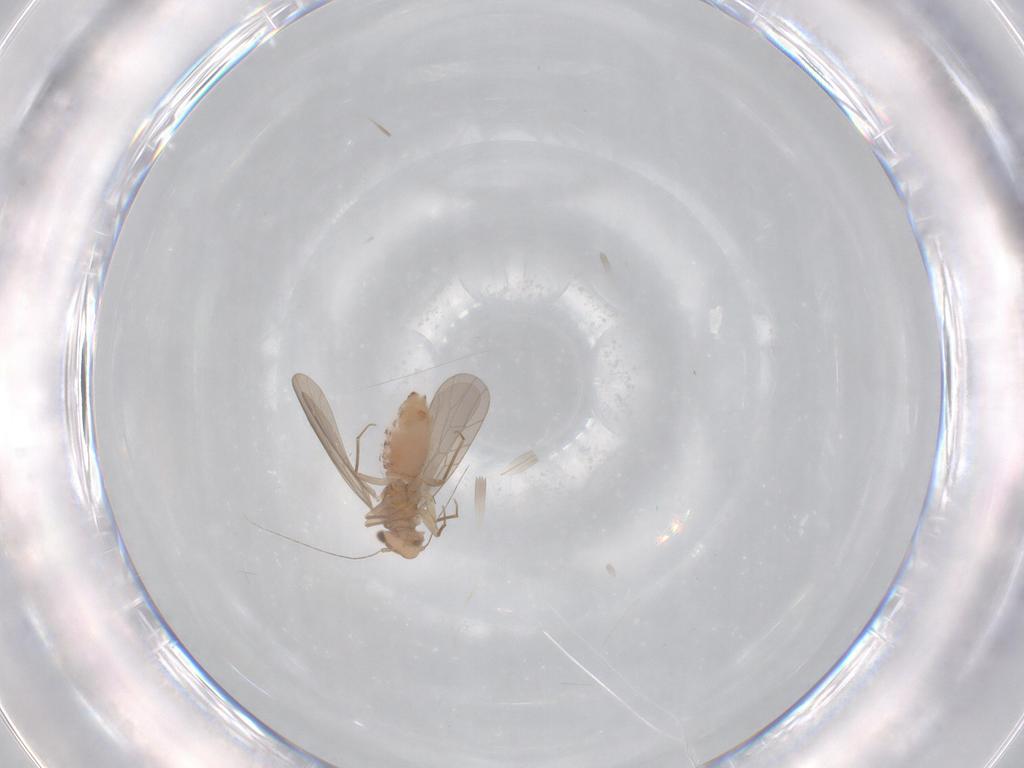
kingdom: Animalia
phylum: Arthropoda
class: Insecta
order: Psocodea
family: Lepidopsocidae
